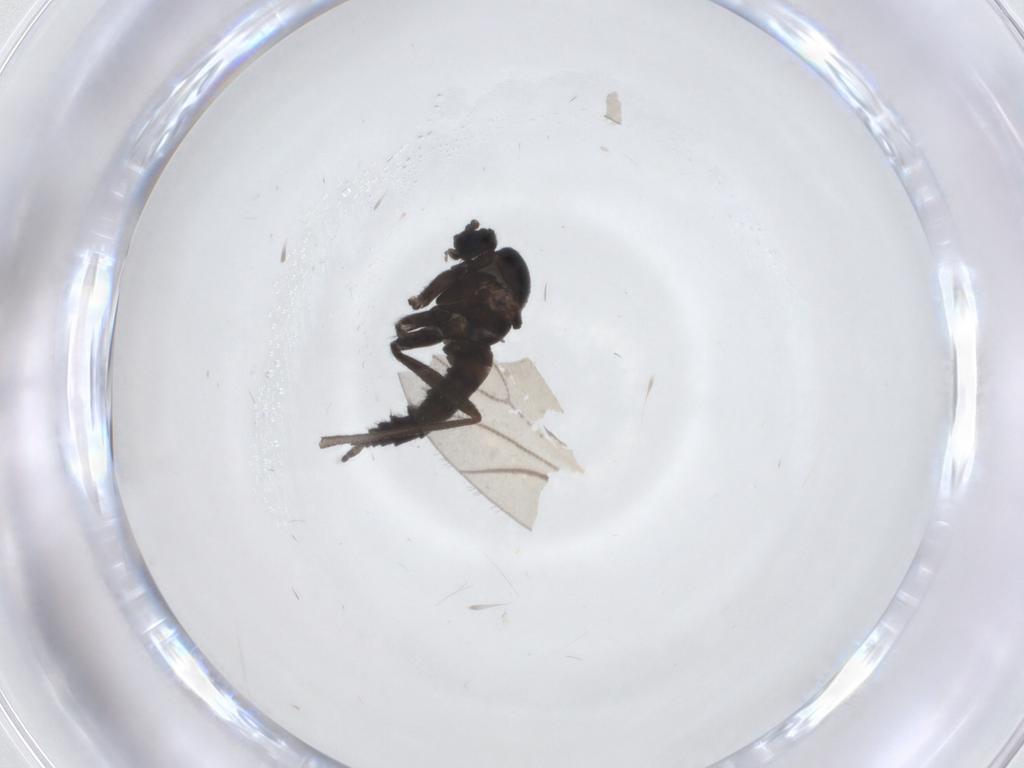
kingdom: Animalia
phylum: Arthropoda
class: Insecta
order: Diptera
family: Sciaridae
